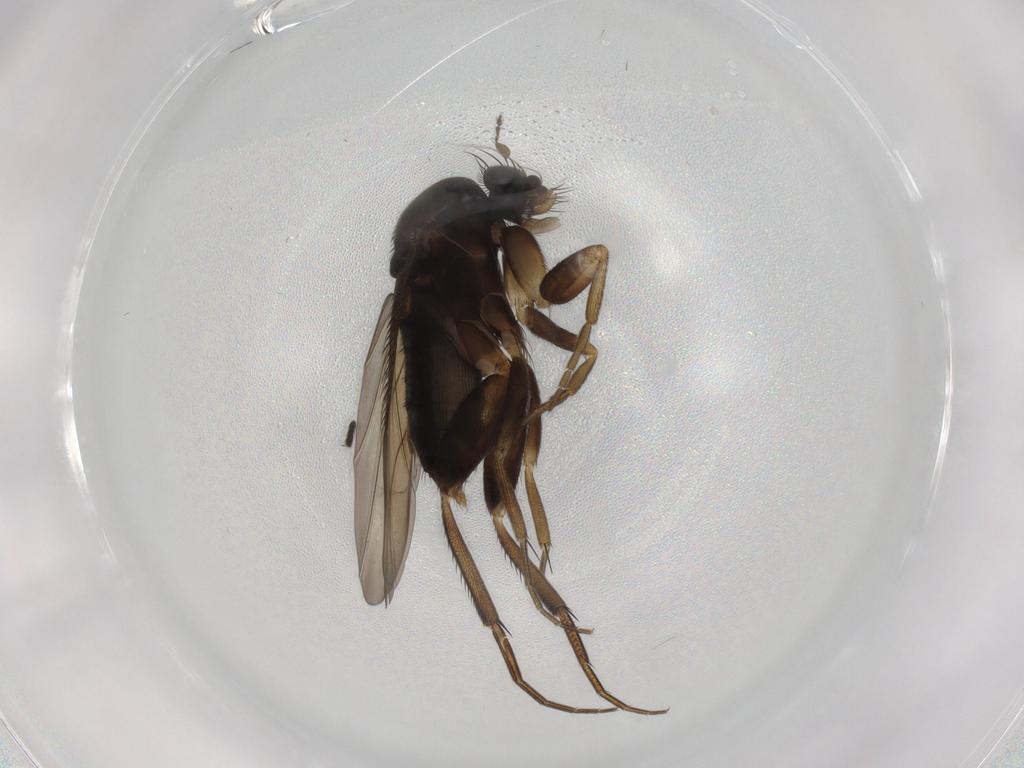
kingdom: Animalia
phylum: Arthropoda
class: Insecta
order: Diptera
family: Phoridae
